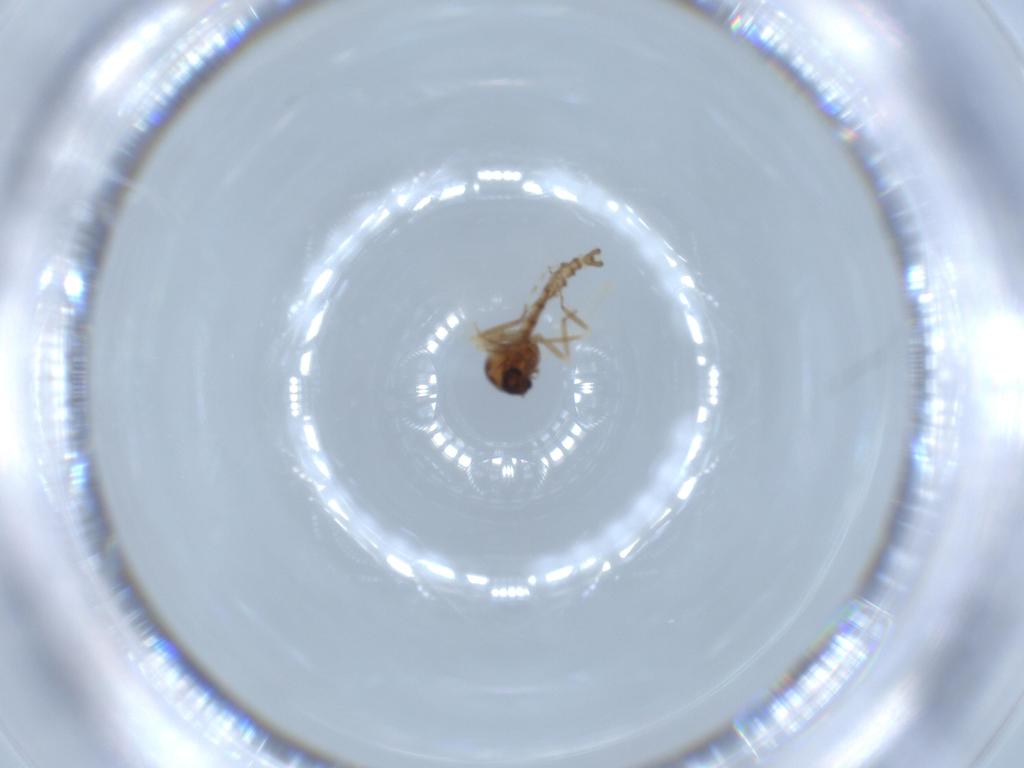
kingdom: Animalia
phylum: Arthropoda
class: Insecta
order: Diptera
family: Ceratopogonidae
